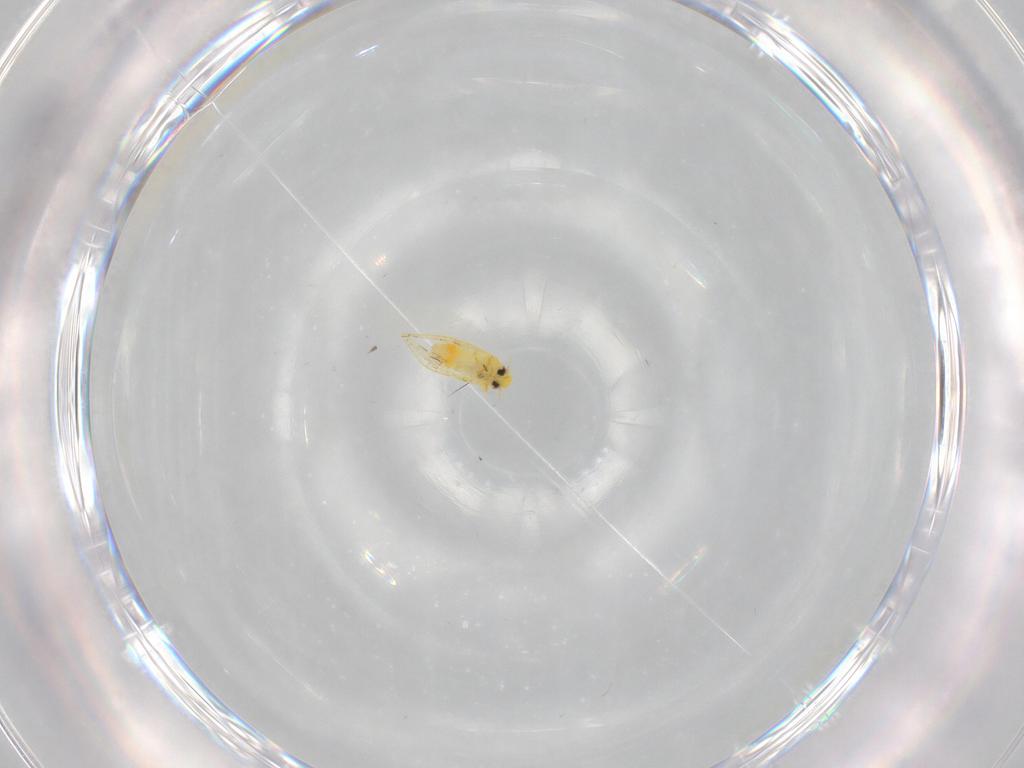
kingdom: Animalia
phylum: Arthropoda
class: Insecta
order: Hemiptera
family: Aleyrodidae
